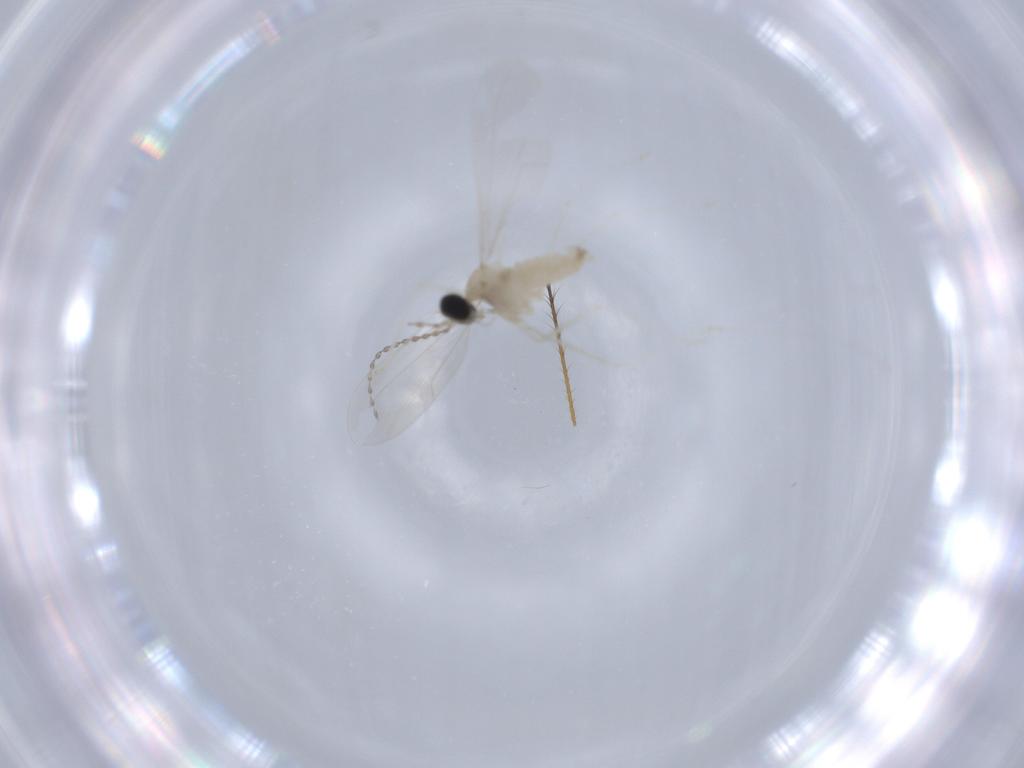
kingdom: Animalia
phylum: Arthropoda
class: Insecta
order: Diptera
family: Cecidomyiidae
